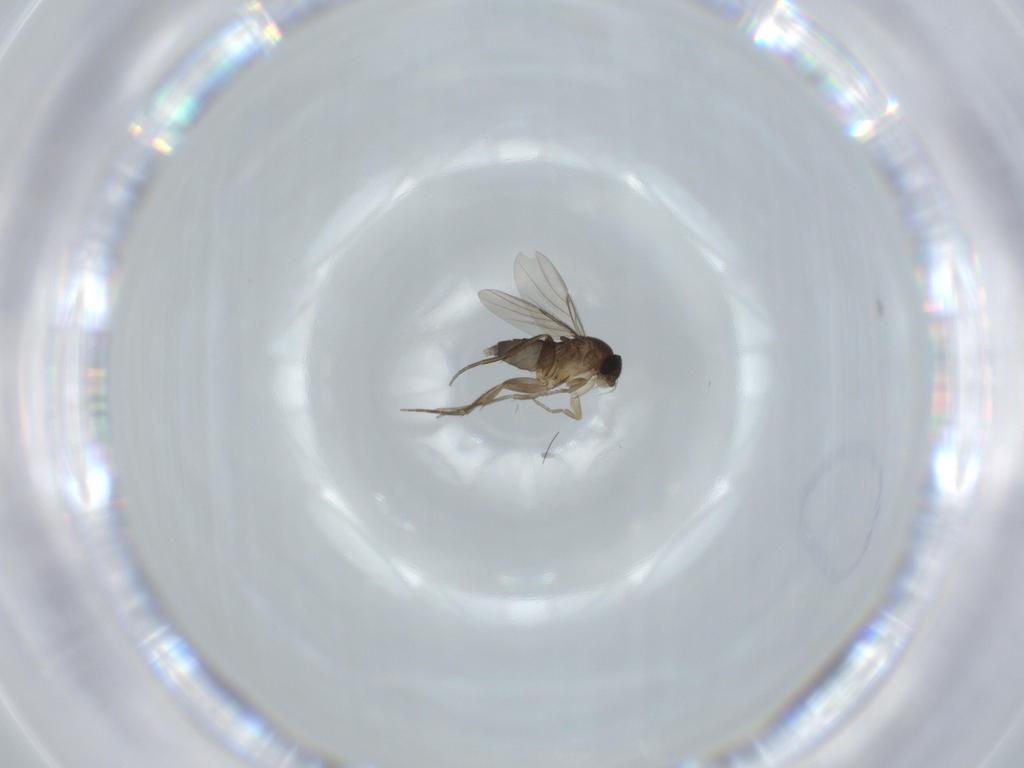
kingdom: Animalia
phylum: Arthropoda
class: Insecta
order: Diptera
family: Phoridae
